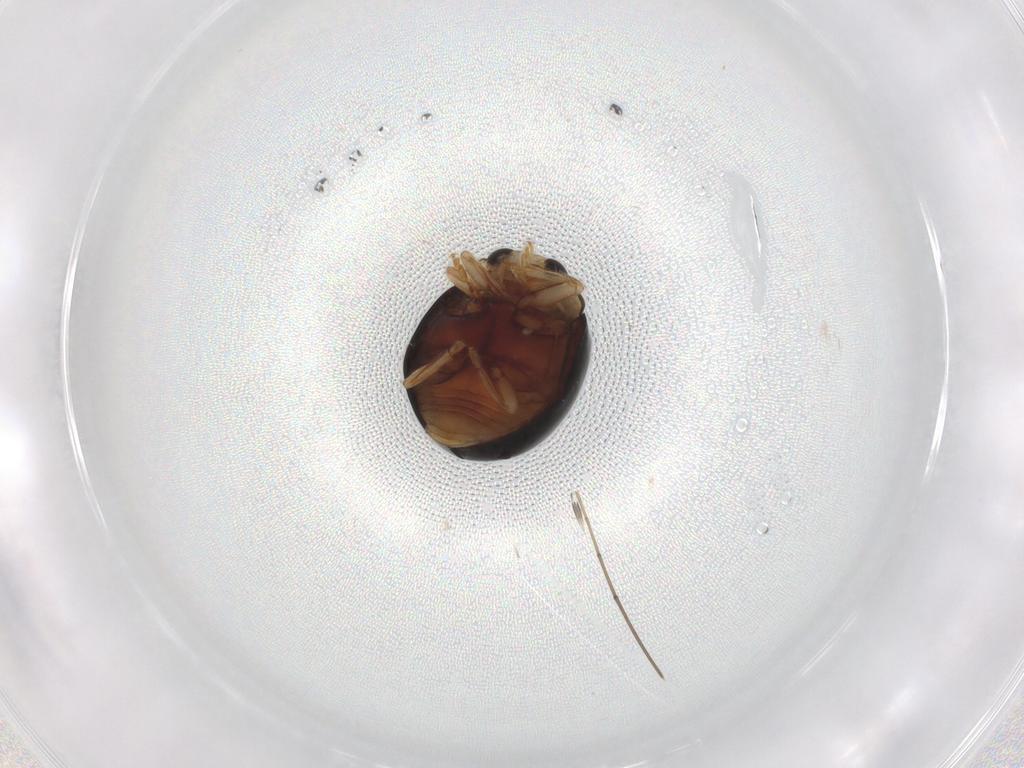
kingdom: Animalia
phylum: Arthropoda
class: Insecta
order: Coleoptera
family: Coccinellidae
